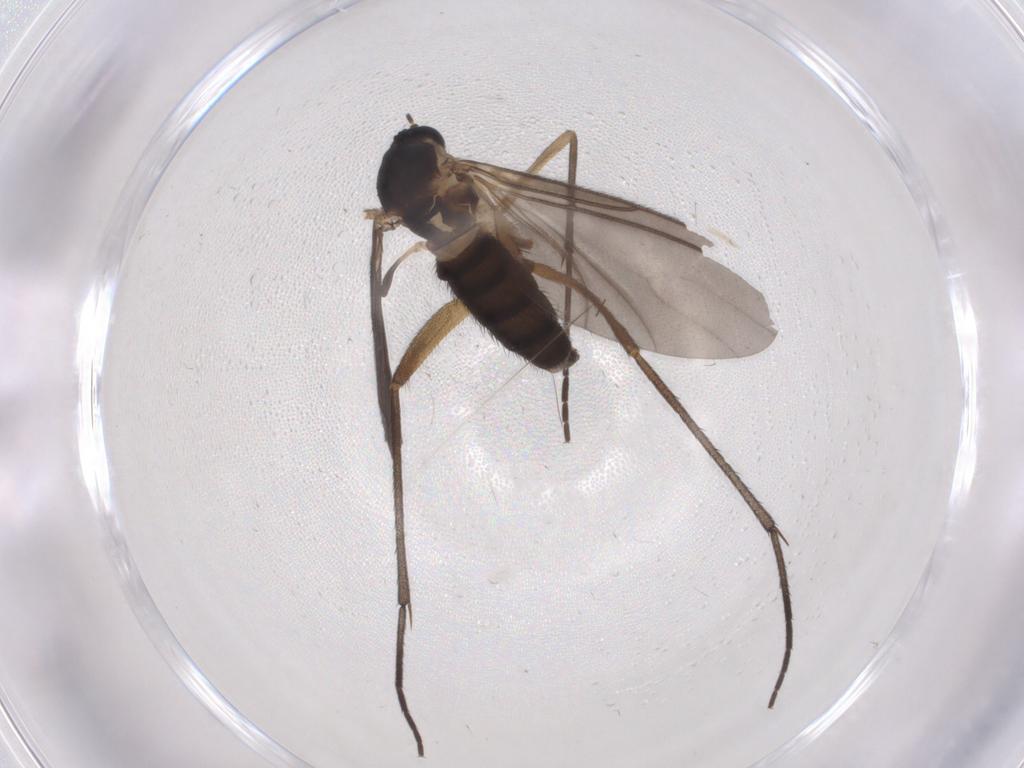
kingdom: Animalia
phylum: Arthropoda
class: Insecta
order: Diptera
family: Sciaridae
